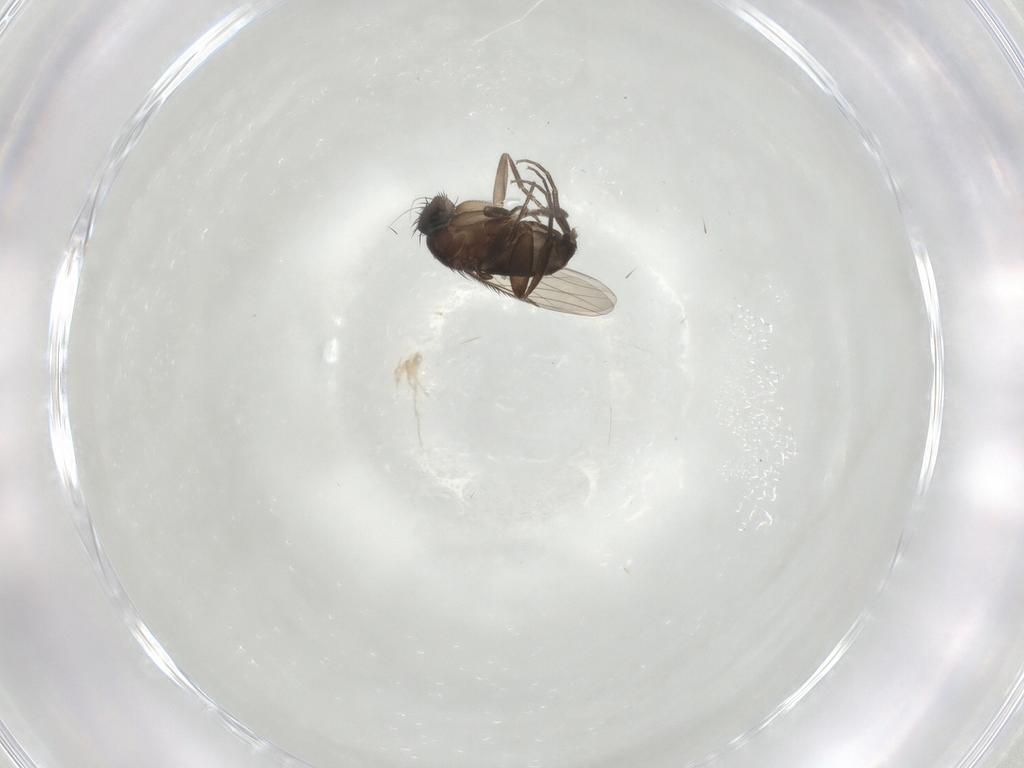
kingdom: Animalia
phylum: Arthropoda
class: Insecta
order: Diptera
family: Phoridae
